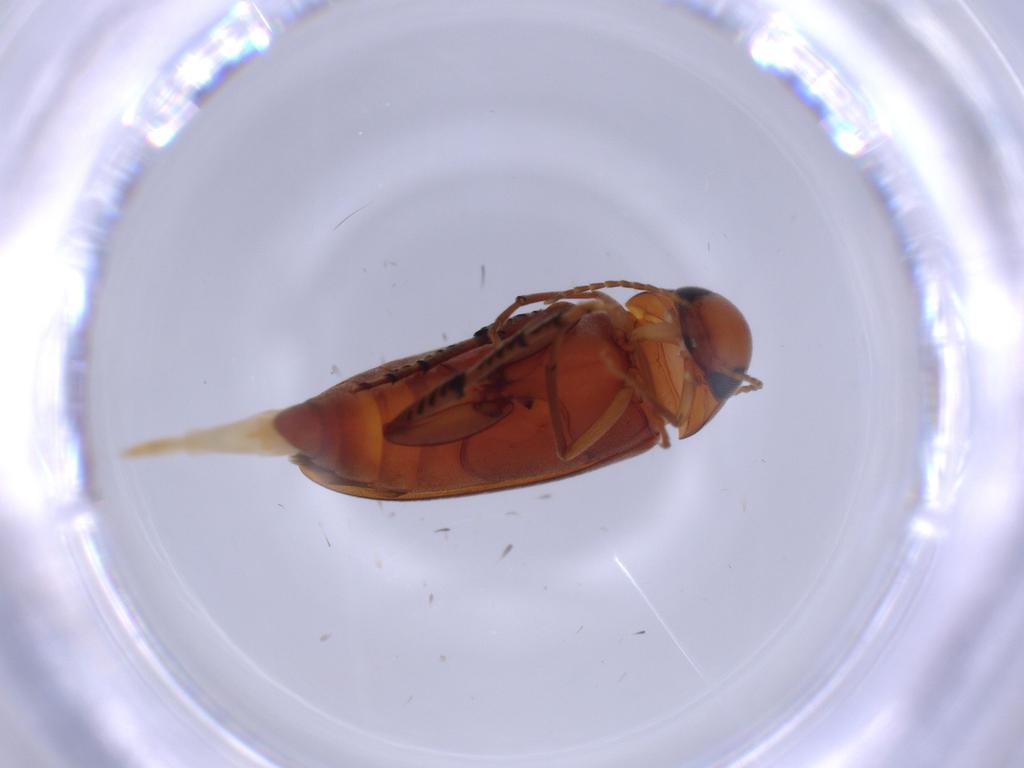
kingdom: Animalia
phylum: Arthropoda
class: Insecta
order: Coleoptera
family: Mordellidae
